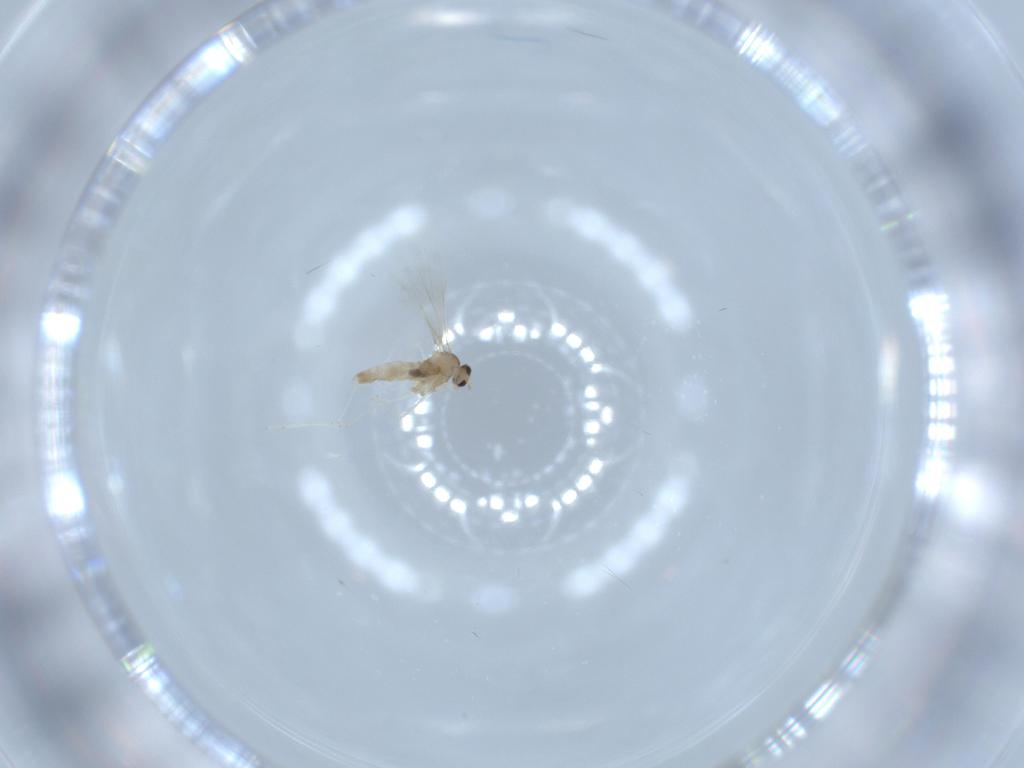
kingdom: Animalia
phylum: Arthropoda
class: Insecta
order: Diptera
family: Cecidomyiidae
